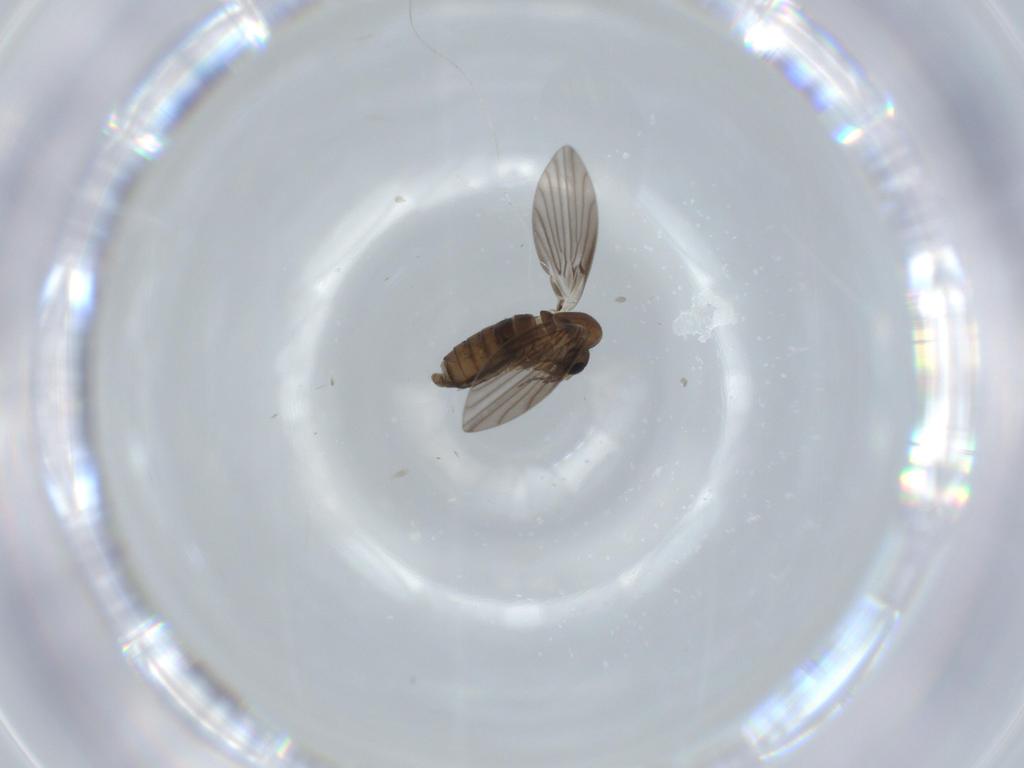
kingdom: Animalia
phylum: Arthropoda
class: Insecta
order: Diptera
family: Psychodidae
